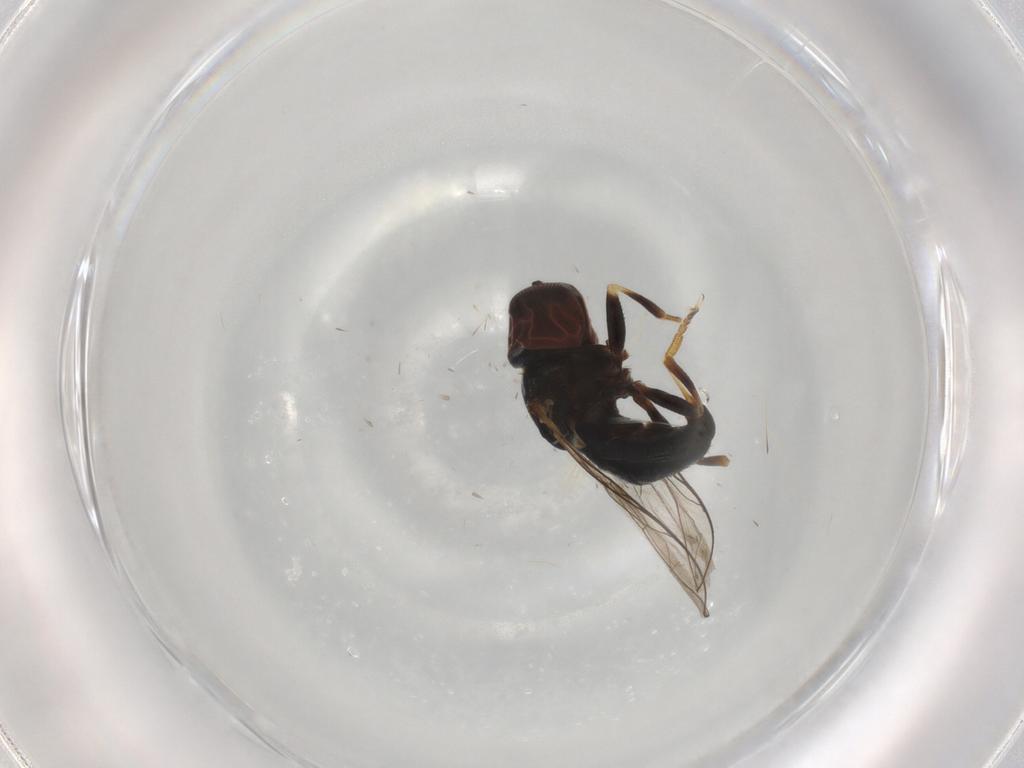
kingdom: Animalia
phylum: Arthropoda
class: Insecta
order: Diptera
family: Pipunculidae
